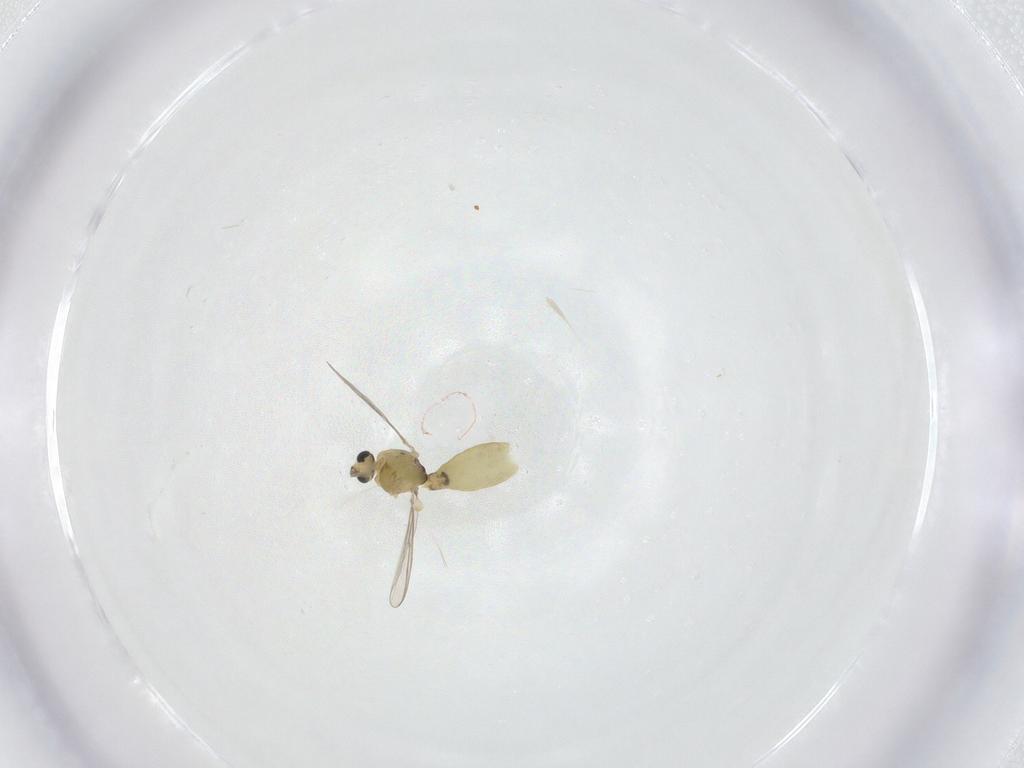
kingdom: Animalia
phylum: Arthropoda
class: Insecta
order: Diptera
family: Chironomidae
